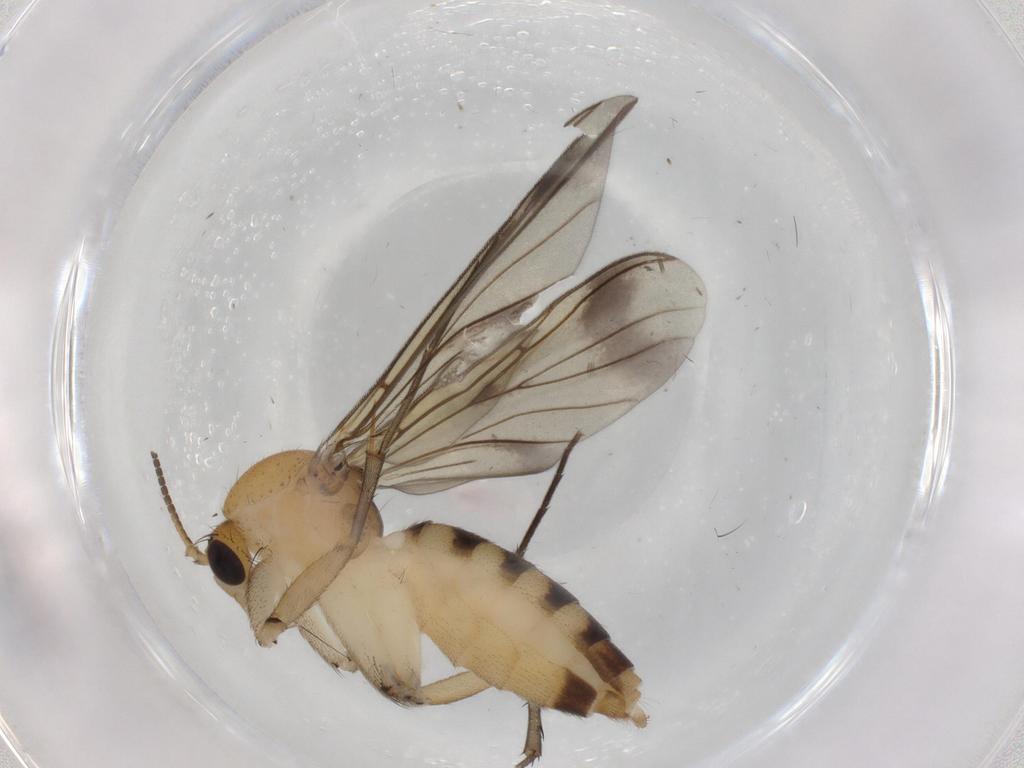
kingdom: Animalia
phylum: Arthropoda
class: Insecta
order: Diptera
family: Mycetophilidae
